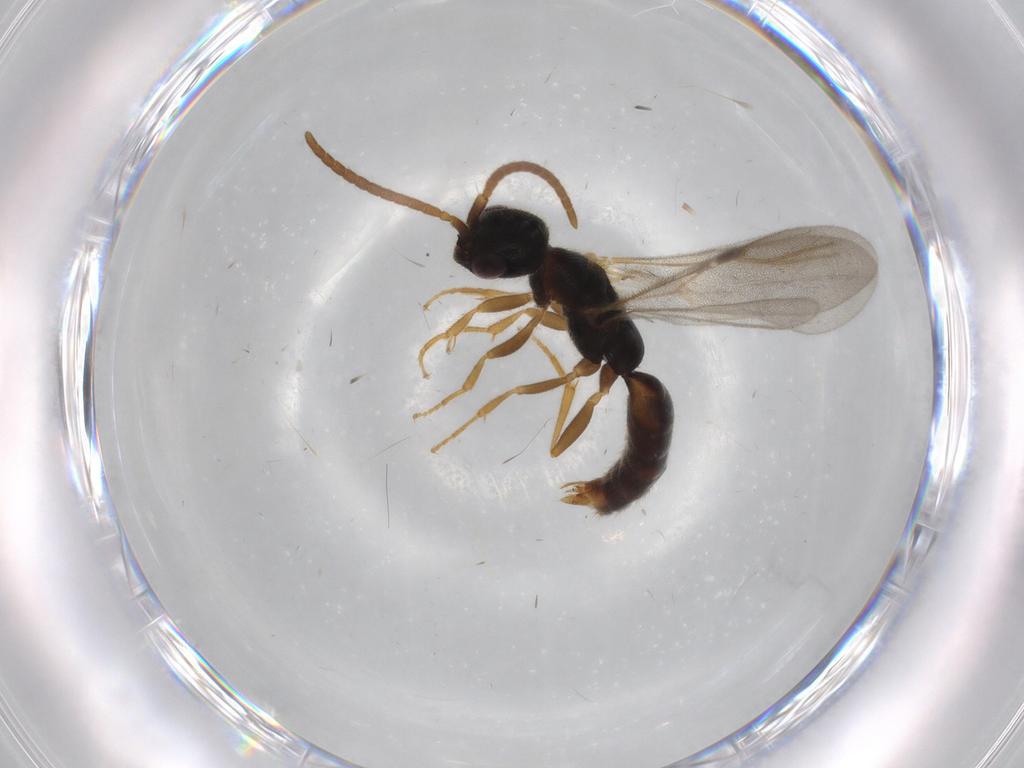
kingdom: Animalia
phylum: Arthropoda
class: Insecta
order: Hymenoptera
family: Bethylidae
